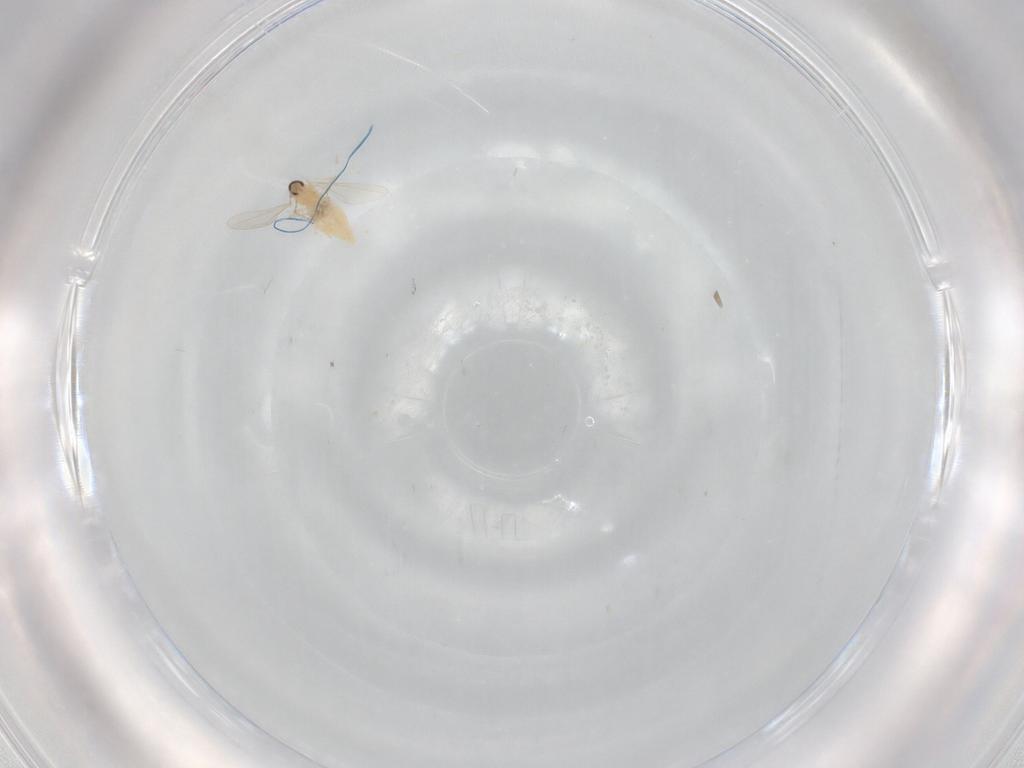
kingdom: Animalia
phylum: Arthropoda
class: Insecta
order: Diptera
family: Cecidomyiidae
